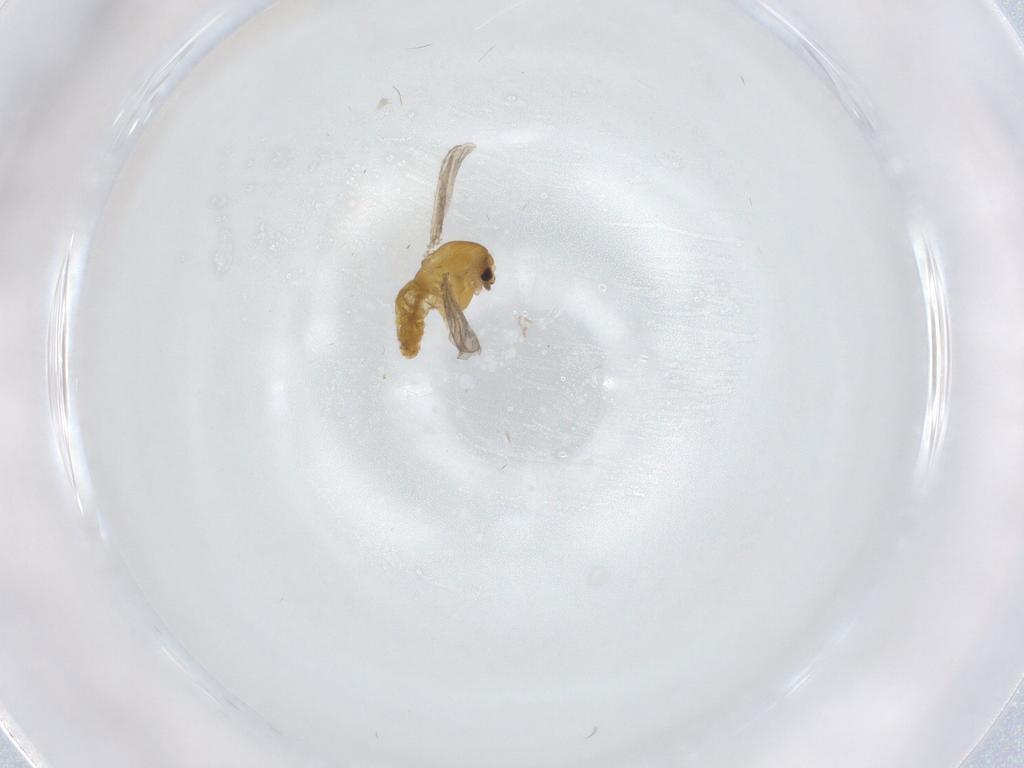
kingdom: Animalia
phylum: Arthropoda
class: Insecta
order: Diptera
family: Chironomidae
